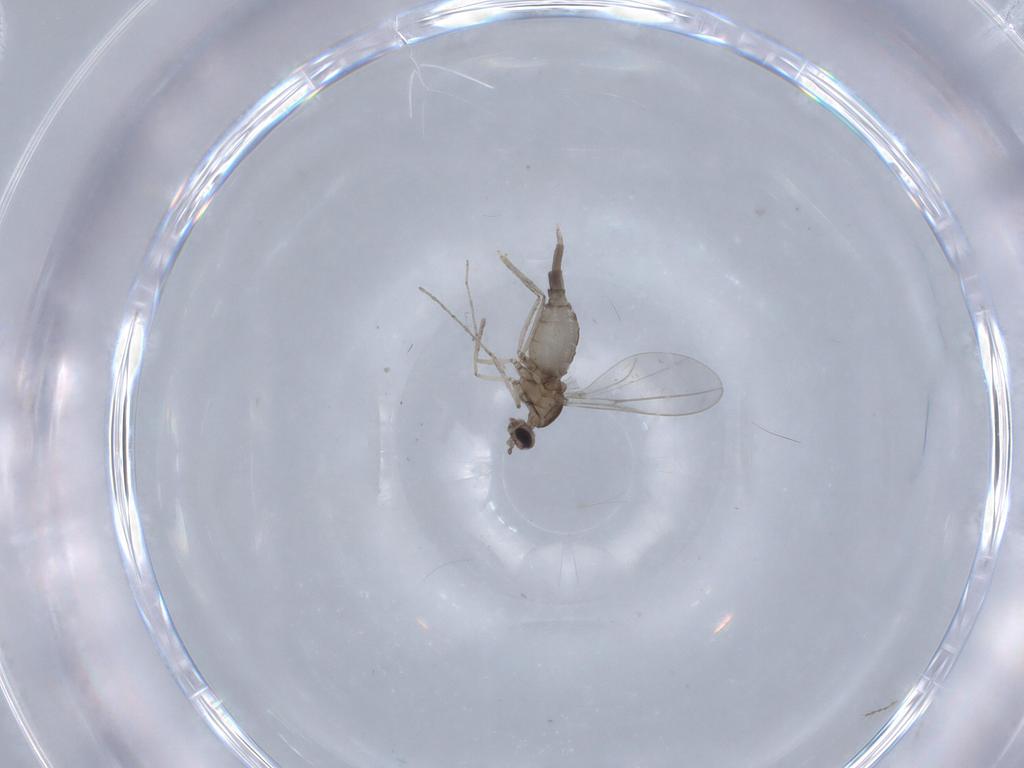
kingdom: Animalia
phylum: Arthropoda
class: Insecta
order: Diptera
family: Cecidomyiidae
